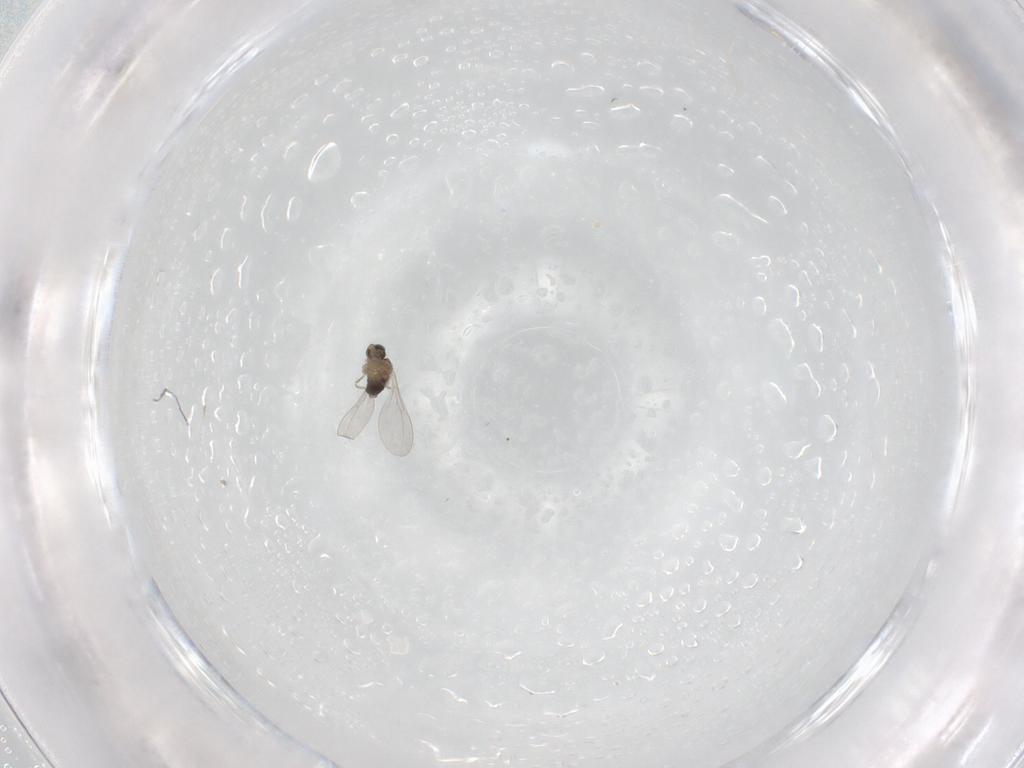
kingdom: Animalia
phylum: Arthropoda
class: Insecta
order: Diptera
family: Cecidomyiidae
